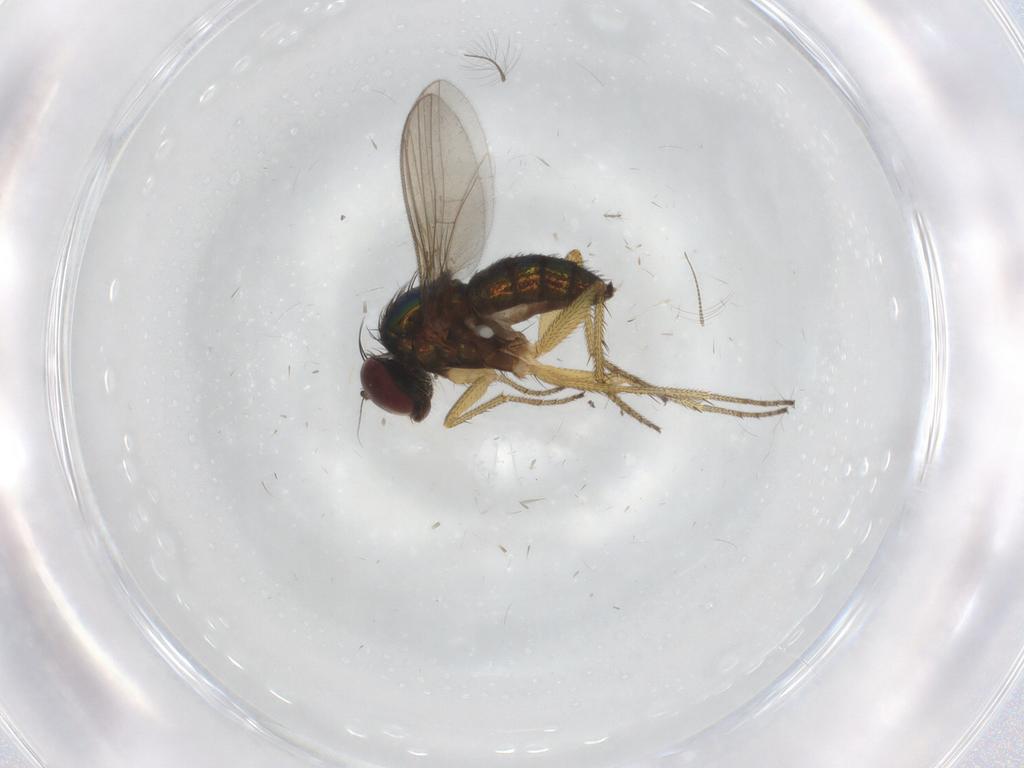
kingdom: Animalia
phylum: Arthropoda
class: Insecta
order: Diptera
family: Dolichopodidae
